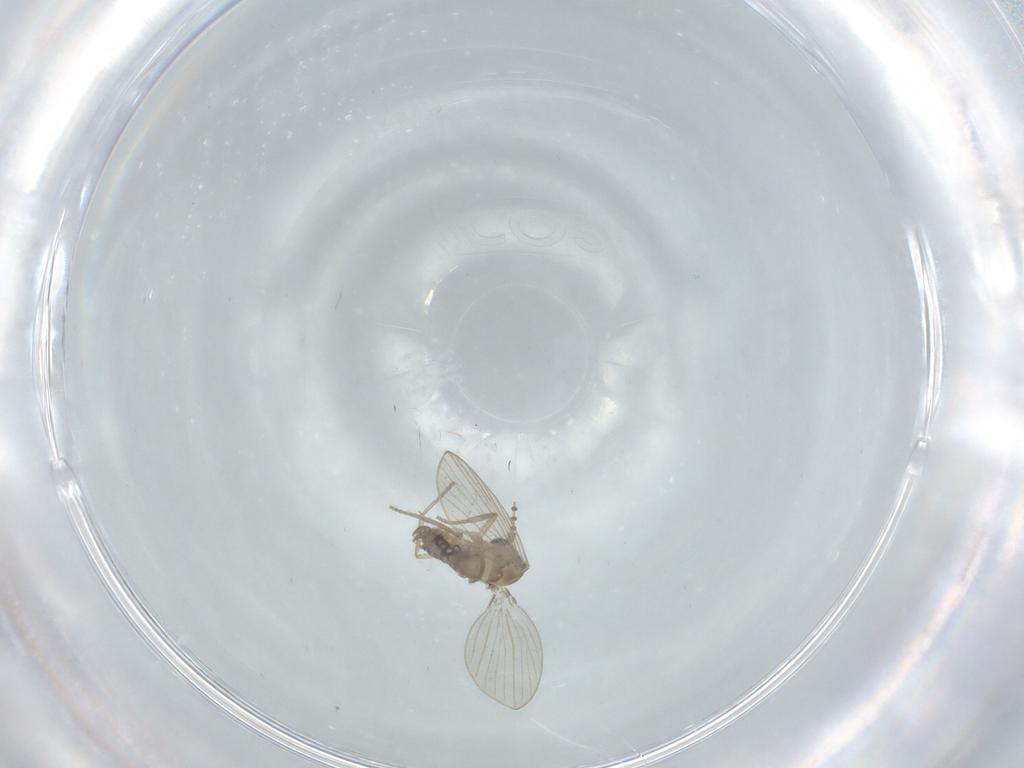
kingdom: Animalia
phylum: Arthropoda
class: Insecta
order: Diptera
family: Psychodidae
